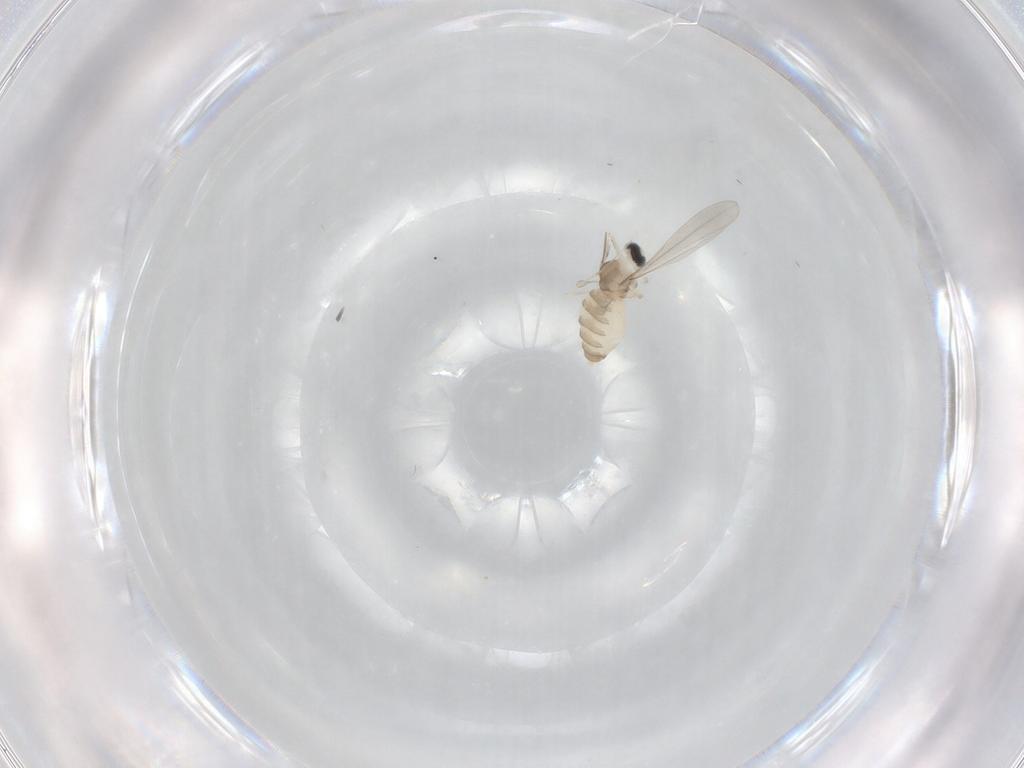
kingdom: Animalia
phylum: Arthropoda
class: Insecta
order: Diptera
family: Cecidomyiidae
